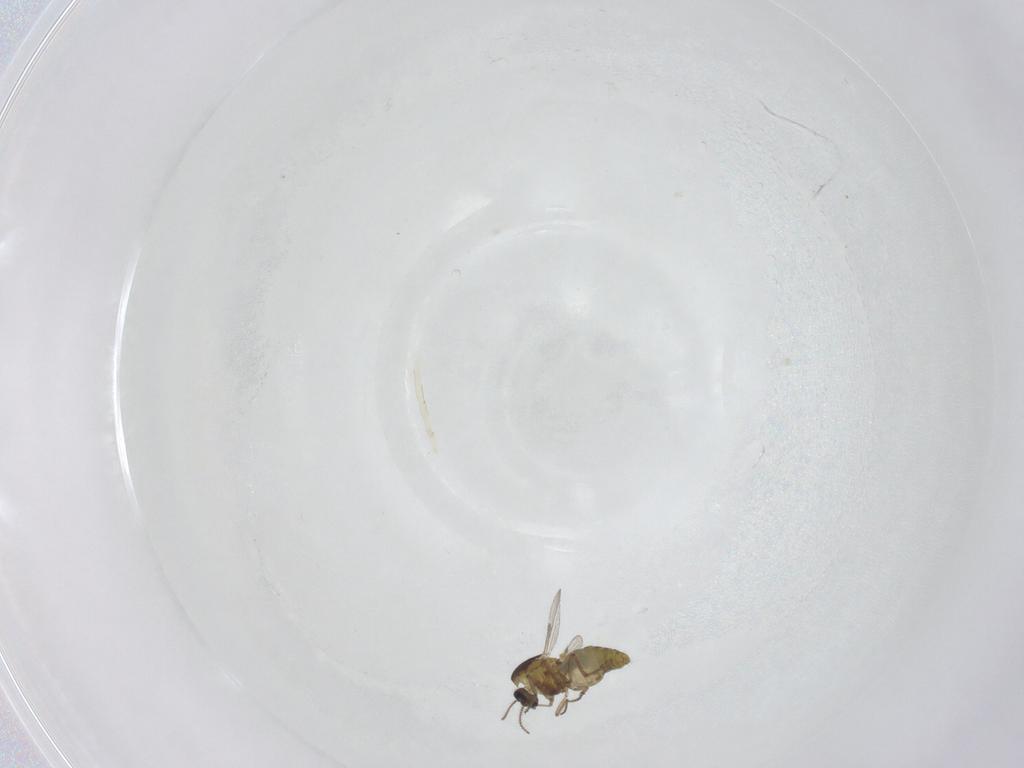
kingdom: Animalia
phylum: Arthropoda
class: Insecta
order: Diptera
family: Ceratopogonidae
